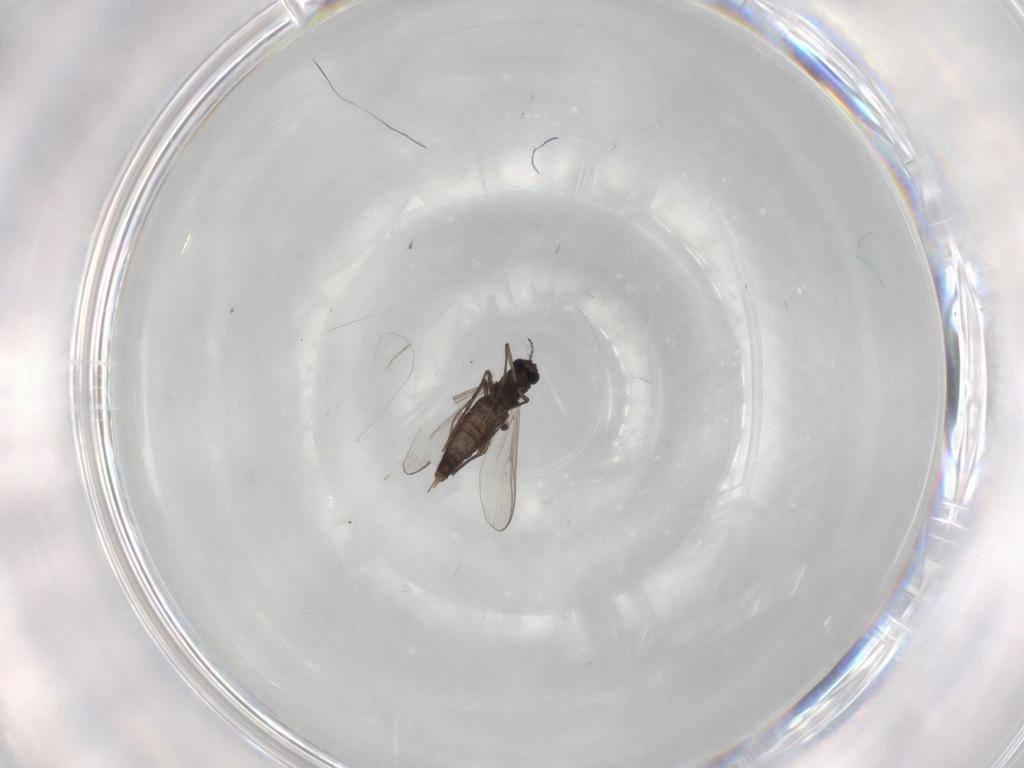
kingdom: Animalia
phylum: Arthropoda
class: Insecta
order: Diptera
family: Chironomidae
